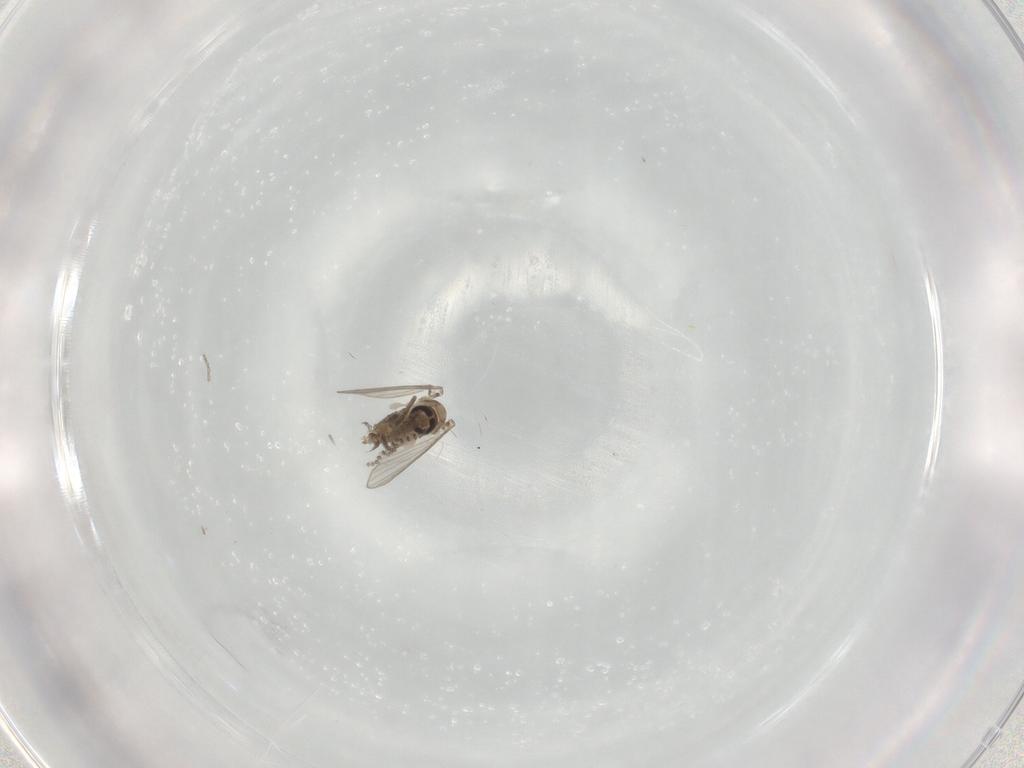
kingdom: Animalia
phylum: Arthropoda
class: Insecta
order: Diptera
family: Psychodidae
